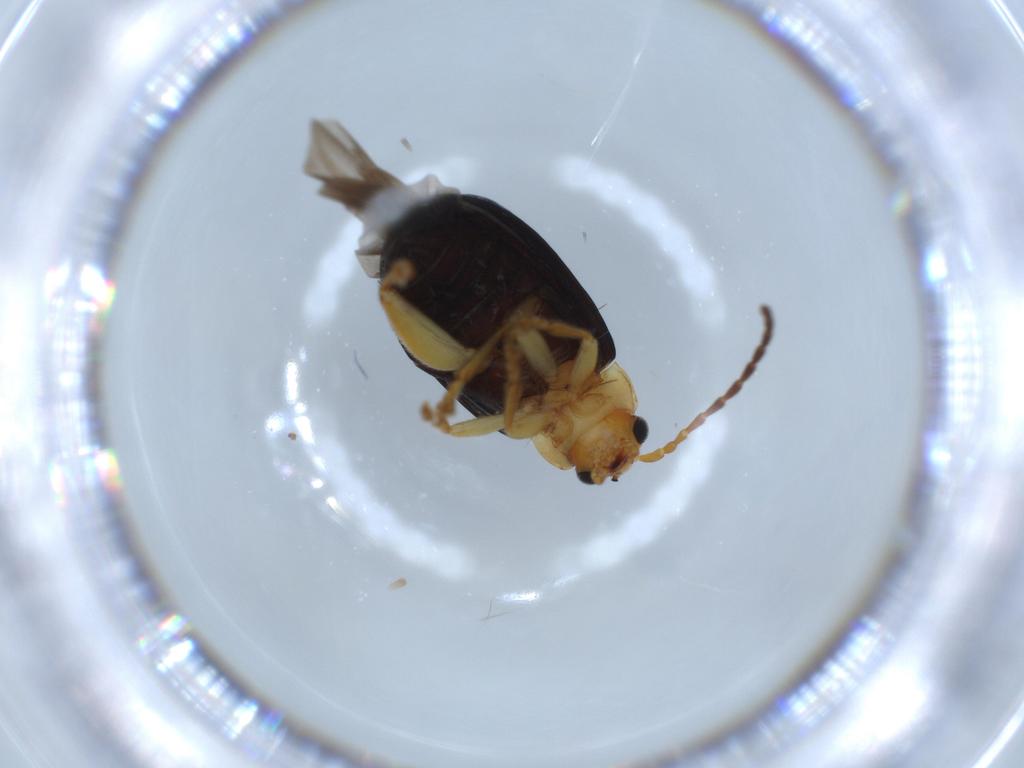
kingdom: Animalia
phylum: Arthropoda
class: Insecta
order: Coleoptera
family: Chrysomelidae
